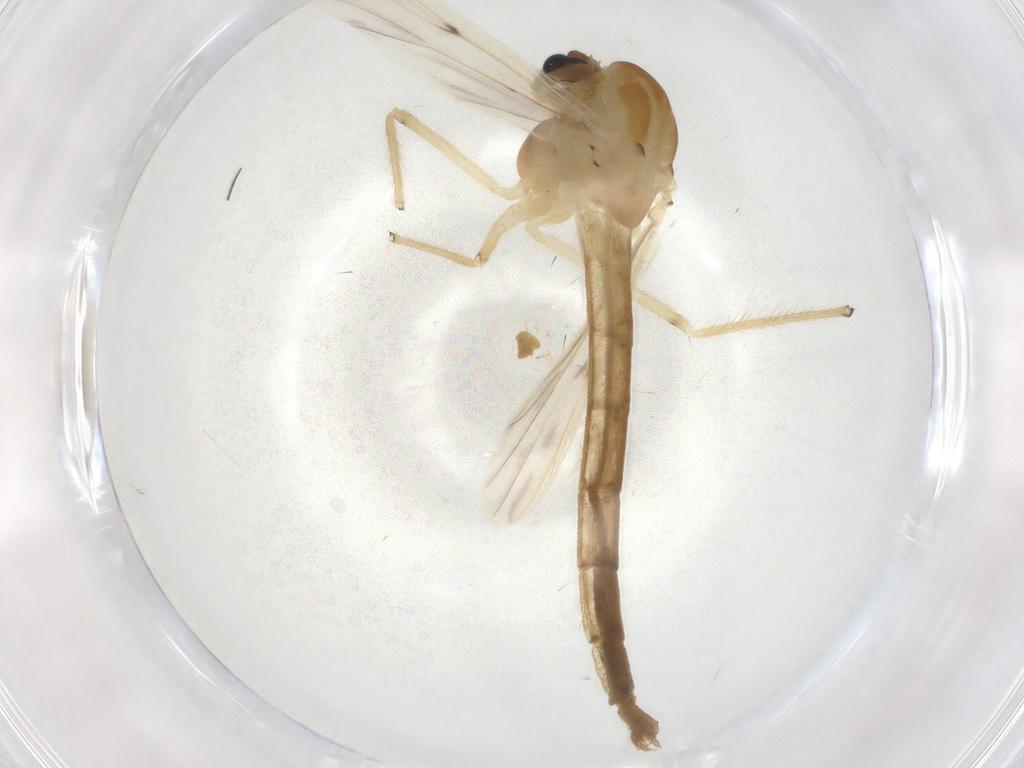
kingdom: Animalia
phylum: Arthropoda
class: Insecta
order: Diptera
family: Chironomidae
